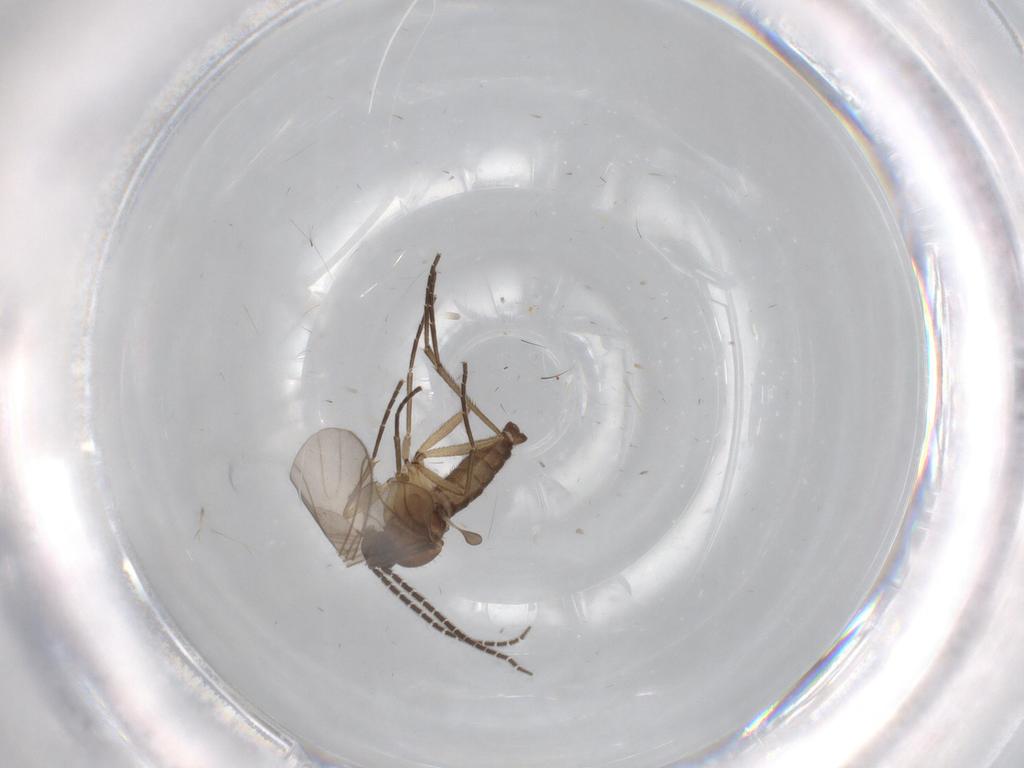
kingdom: Animalia
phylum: Arthropoda
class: Insecta
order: Diptera
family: Sciaridae
